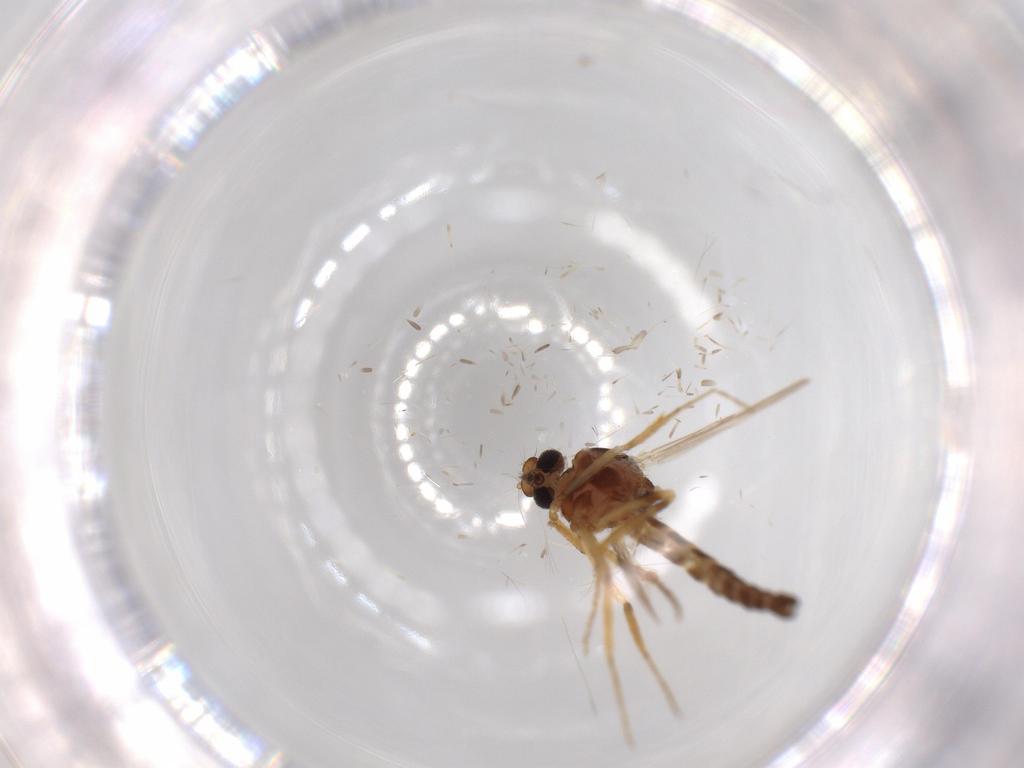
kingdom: Animalia
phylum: Arthropoda
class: Insecta
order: Diptera
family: Ceratopogonidae
